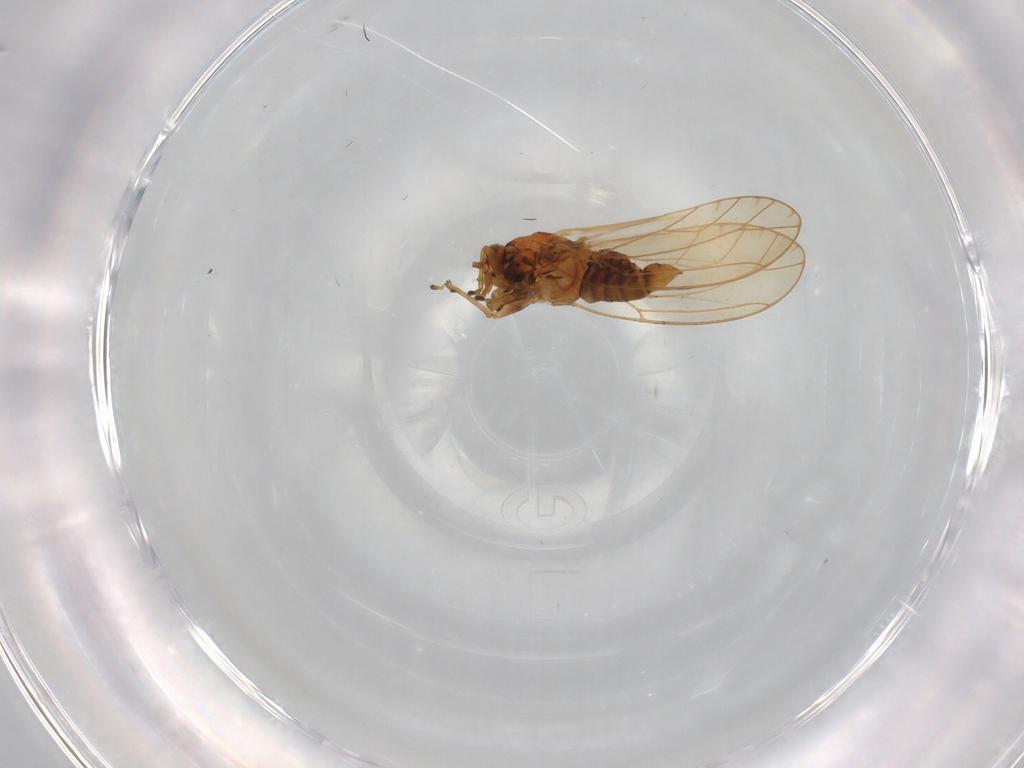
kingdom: Animalia
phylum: Arthropoda
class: Insecta
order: Hemiptera
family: Triozidae
